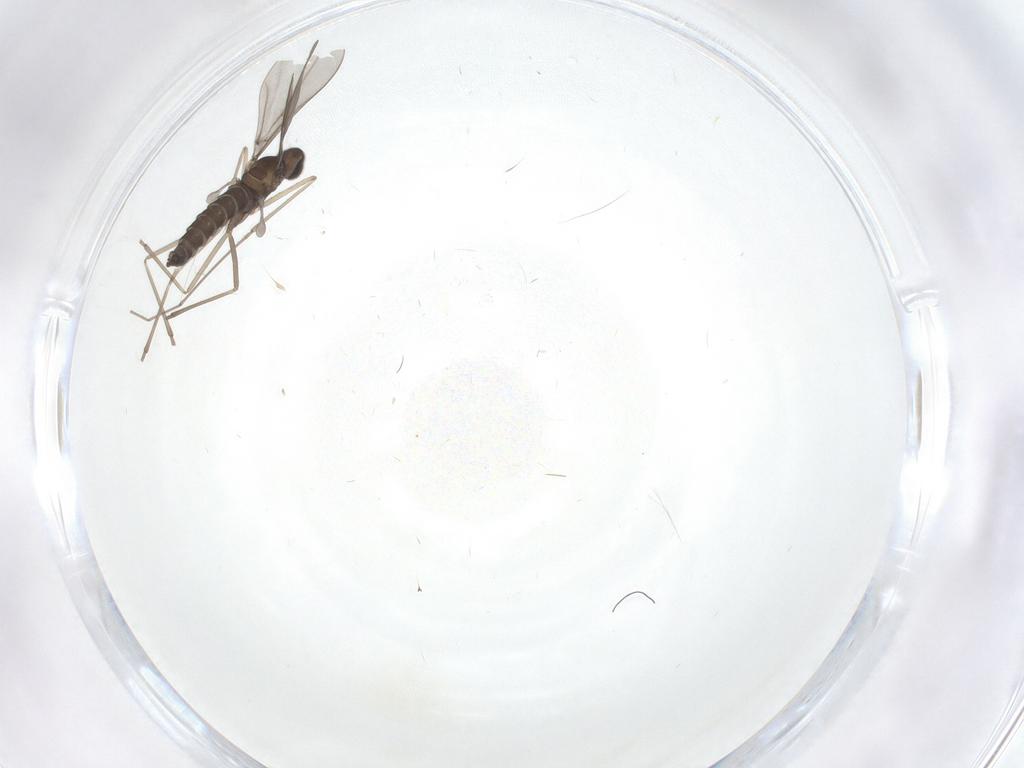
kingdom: Animalia
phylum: Arthropoda
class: Insecta
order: Diptera
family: Cecidomyiidae
